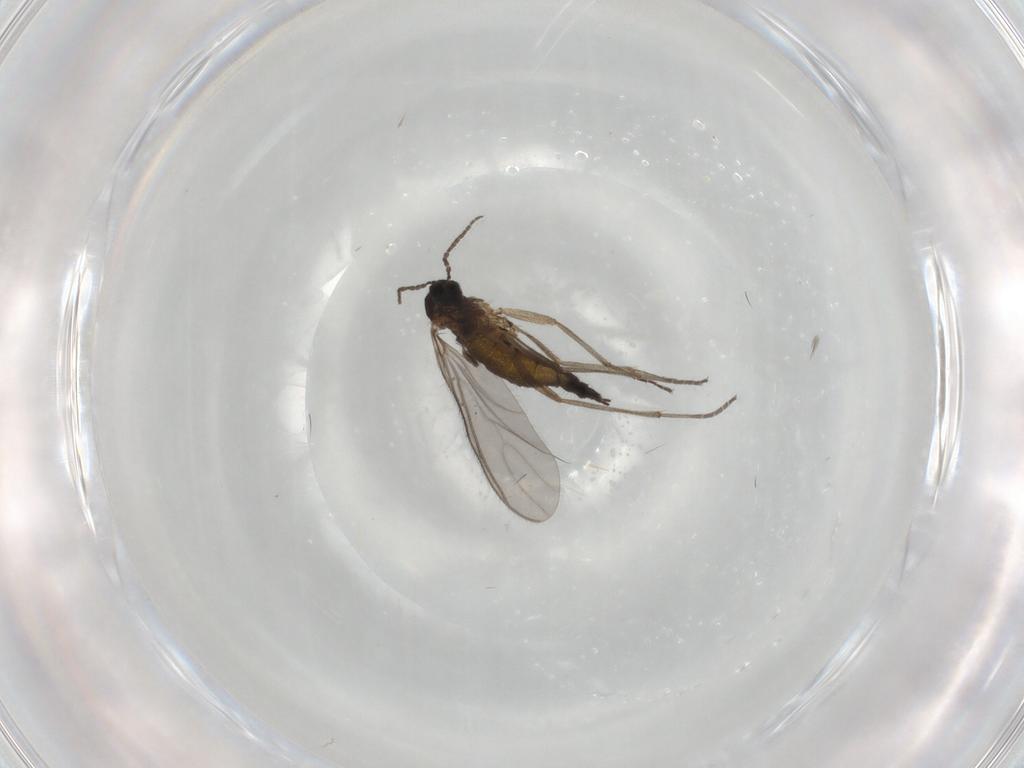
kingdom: Animalia
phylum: Arthropoda
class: Insecta
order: Diptera
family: Sciaridae
